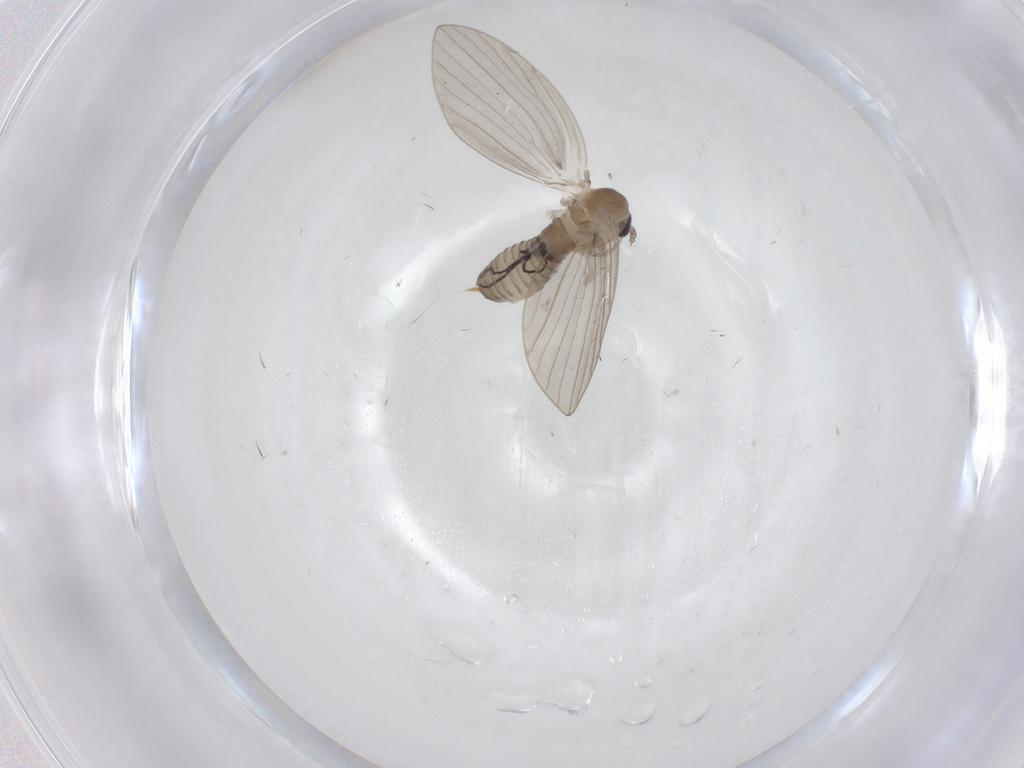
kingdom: Animalia
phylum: Arthropoda
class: Insecta
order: Diptera
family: Psychodidae
